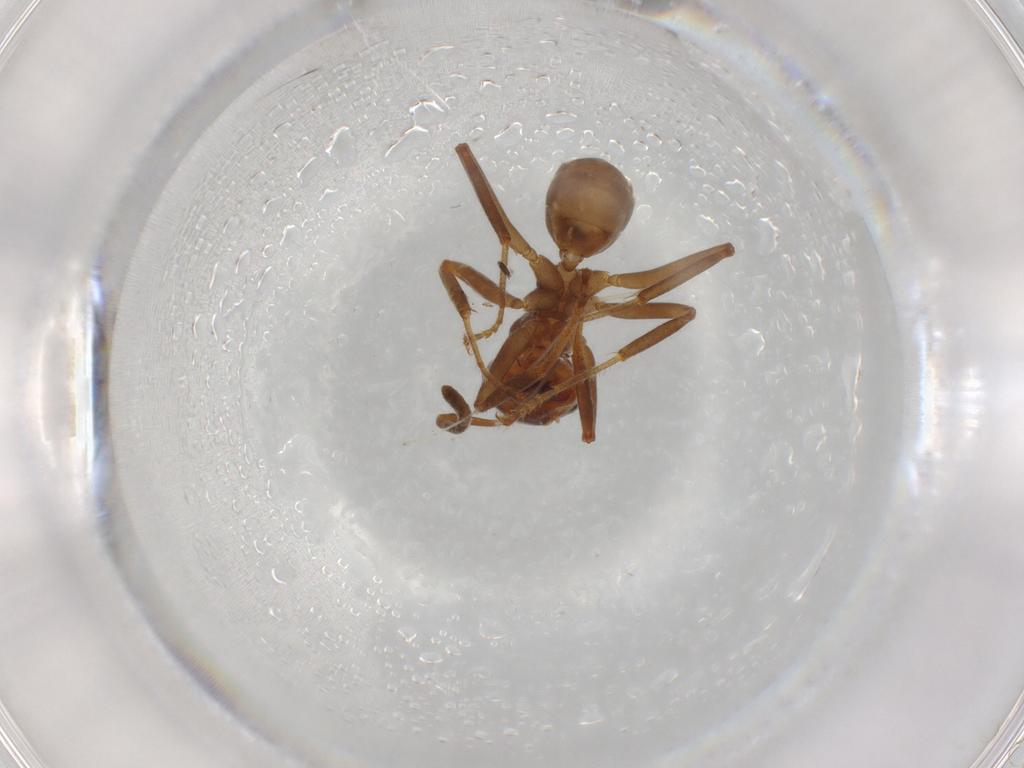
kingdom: Animalia
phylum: Arthropoda
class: Insecta
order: Hymenoptera
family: Formicidae
